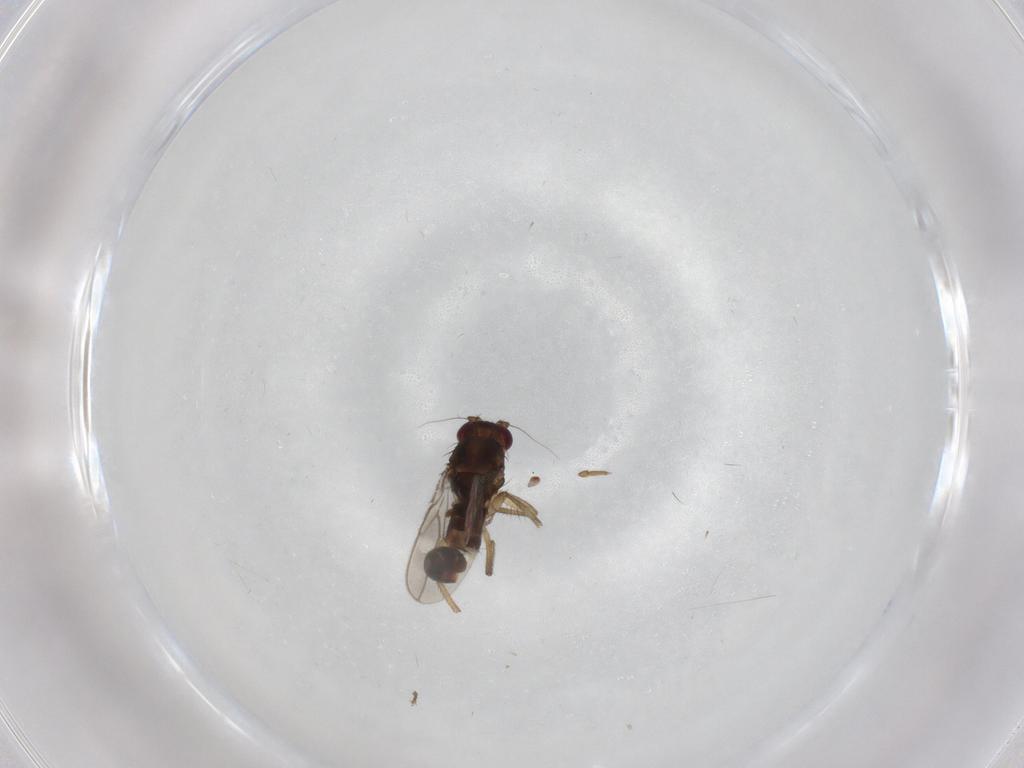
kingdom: Animalia
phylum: Arthropoda
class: Insecta
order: Diptera
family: Sphaeroceridae
